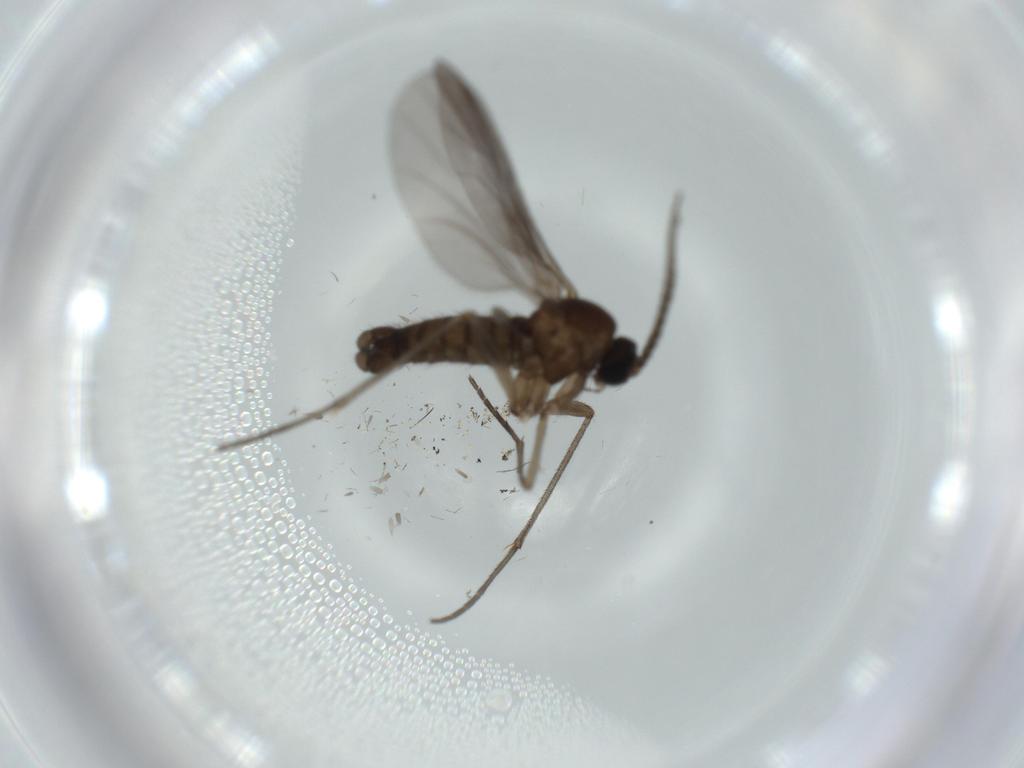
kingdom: Animalia
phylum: Arthropoda
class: Insecta
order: Diptera
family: Sciaridae
